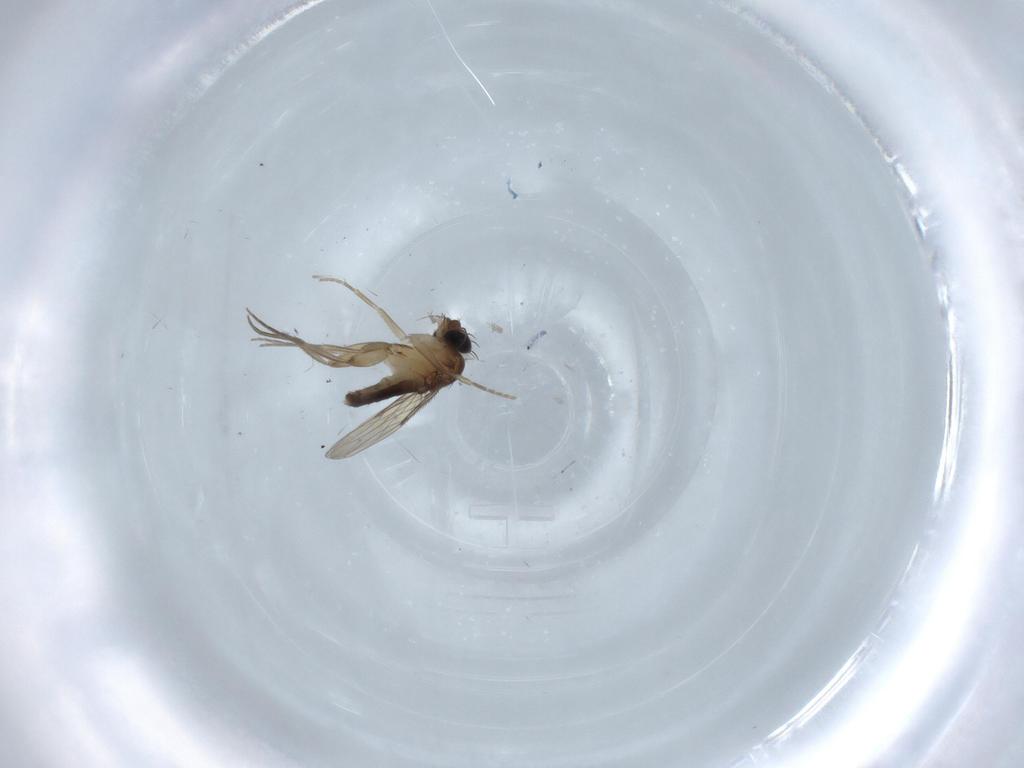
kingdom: Animalia
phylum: Arthropoda
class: Insecta
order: Diptera
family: Phoridae
